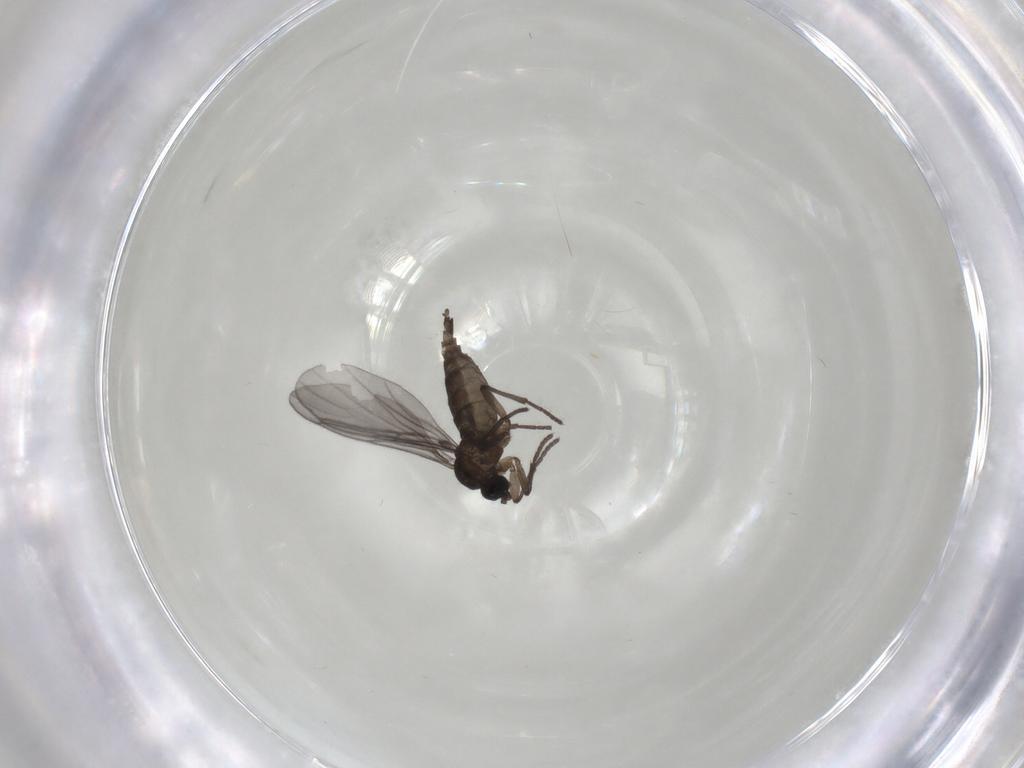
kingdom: Animalia
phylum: Arthropoda
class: Insecta
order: Diptera
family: Sciaridae
